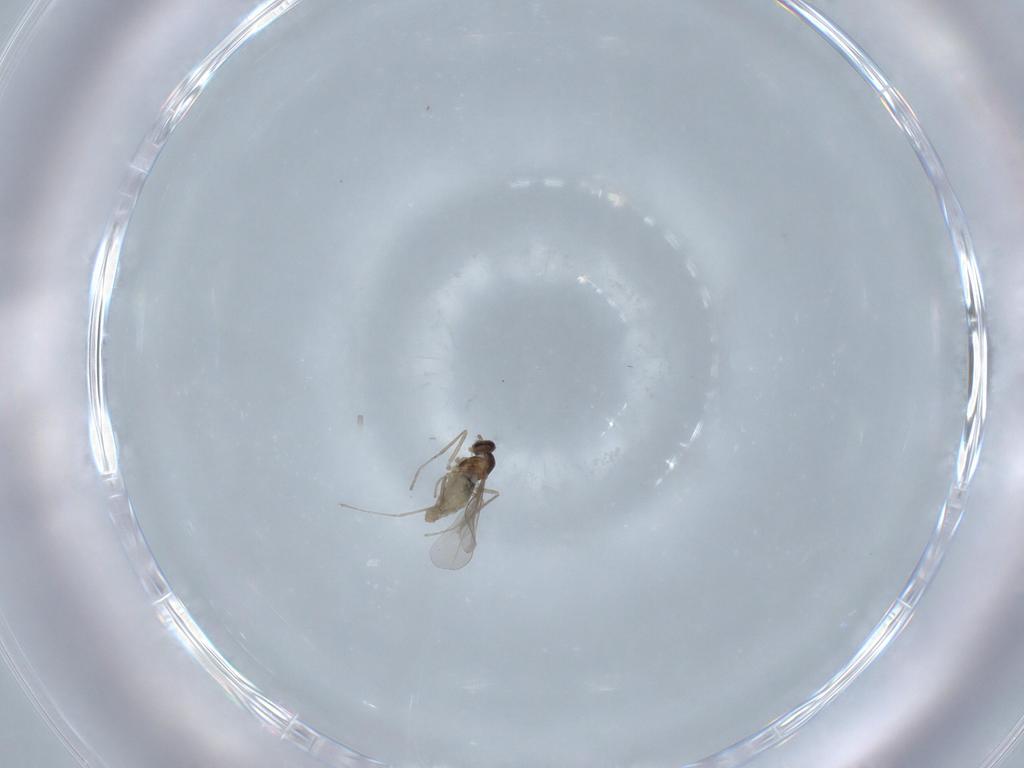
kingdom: Animalia
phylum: Arthropoda
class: Insecta
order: Diptera
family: Cecidomyiidae
